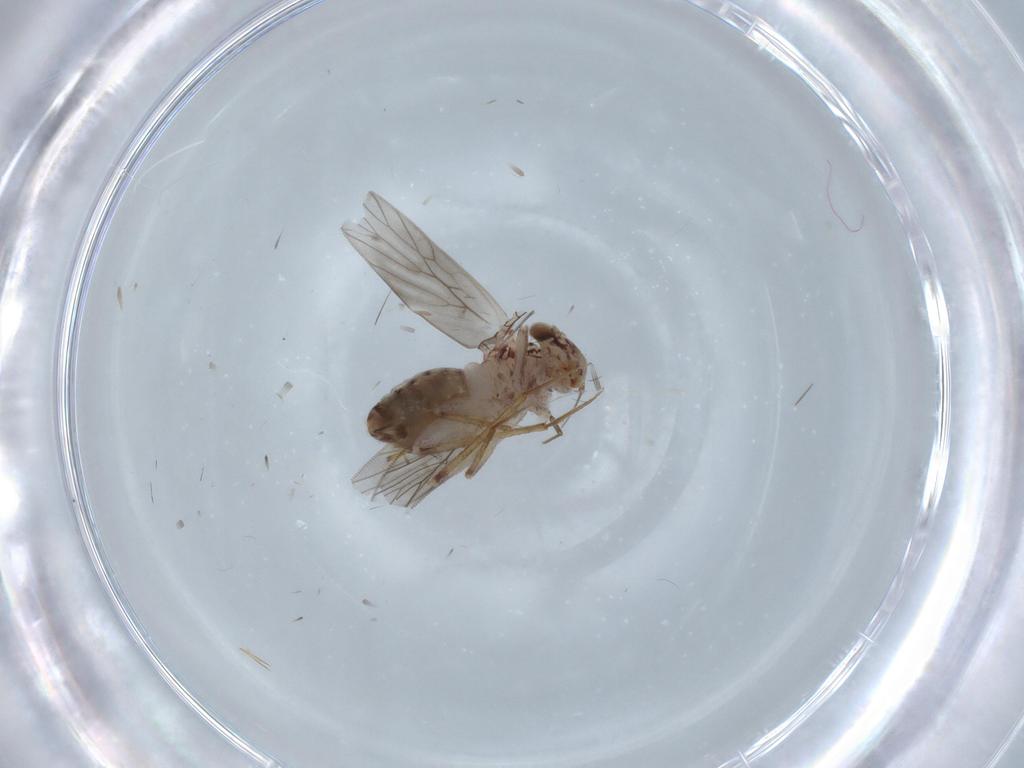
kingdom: Animalia
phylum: Arthropoda
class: Insecta
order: Psocodea
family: Lepidopsocidae
